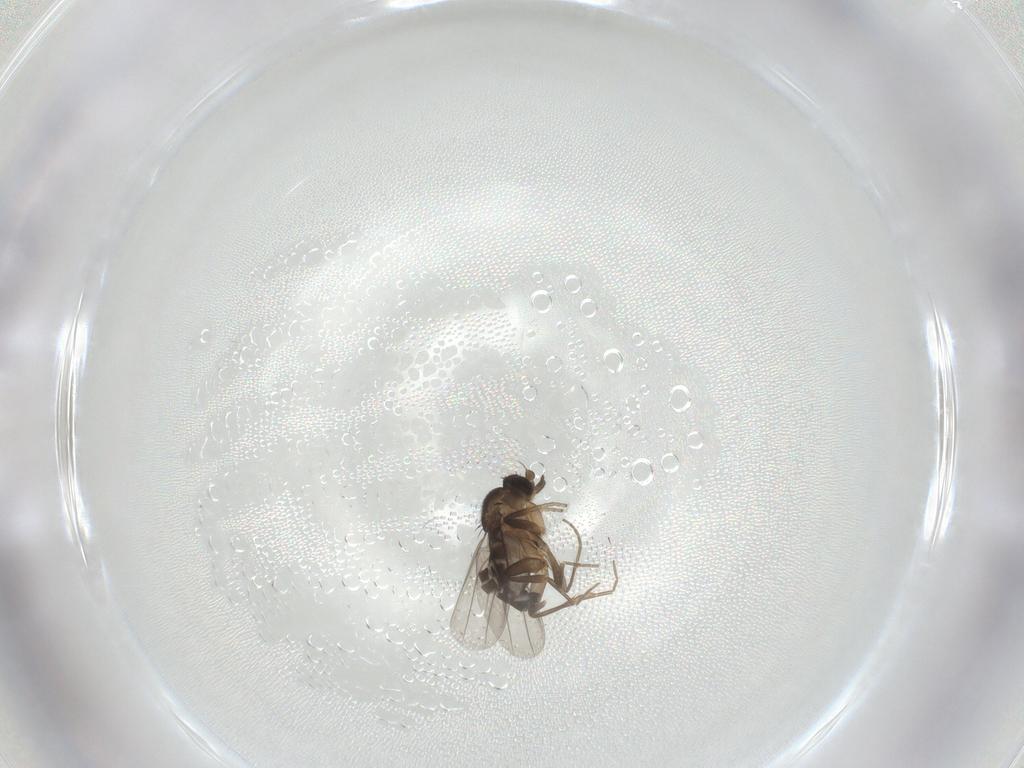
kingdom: Animalia
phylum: Arthropoda
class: Insecta
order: Diptera
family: Phoridae
